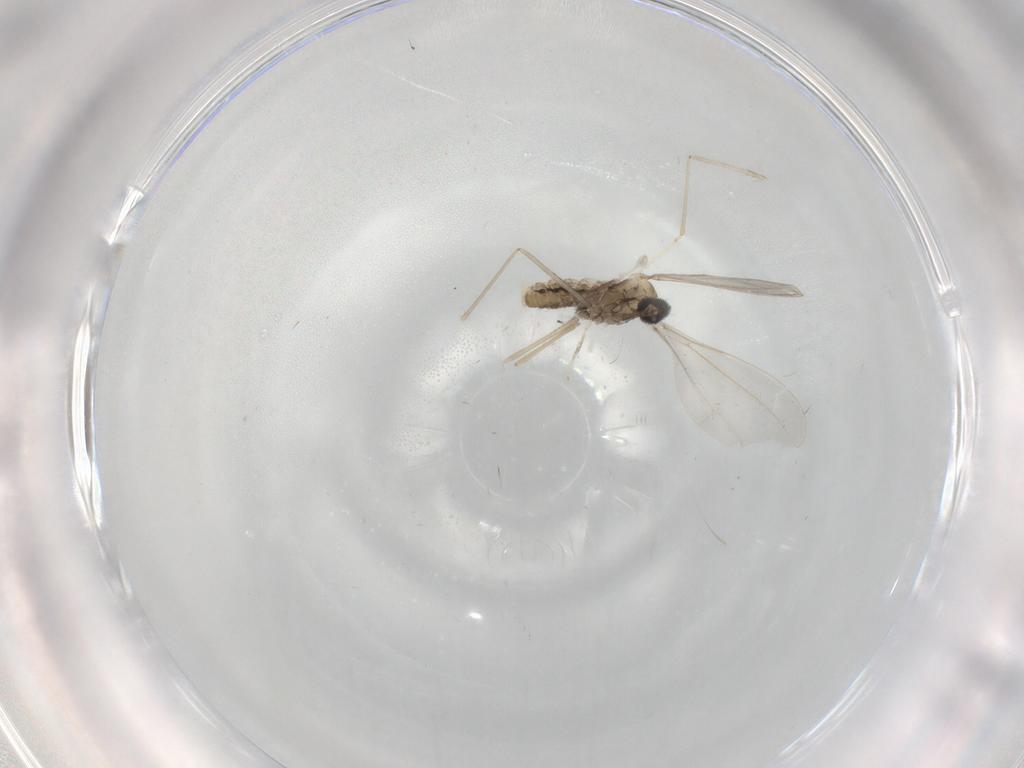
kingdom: Animalia
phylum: Arthropoda
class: Insecta
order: Diptera
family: Cecidomyiidae
